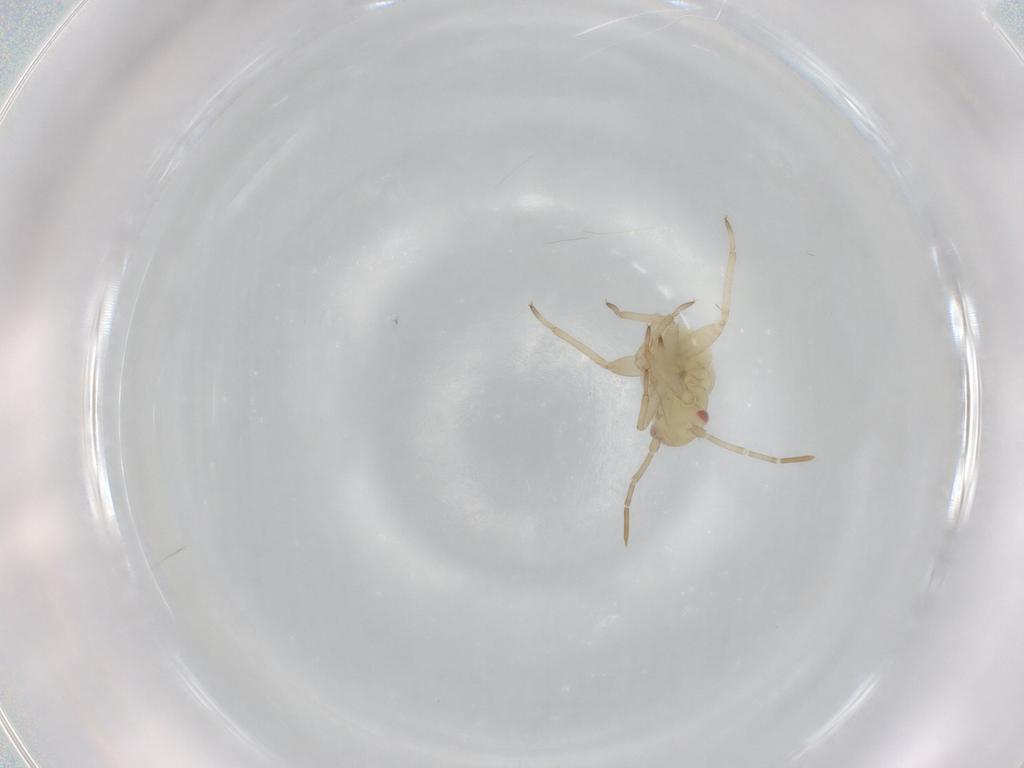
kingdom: Animalia
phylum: Arthropoda
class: Insecta
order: Hemiptera
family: Miridae
